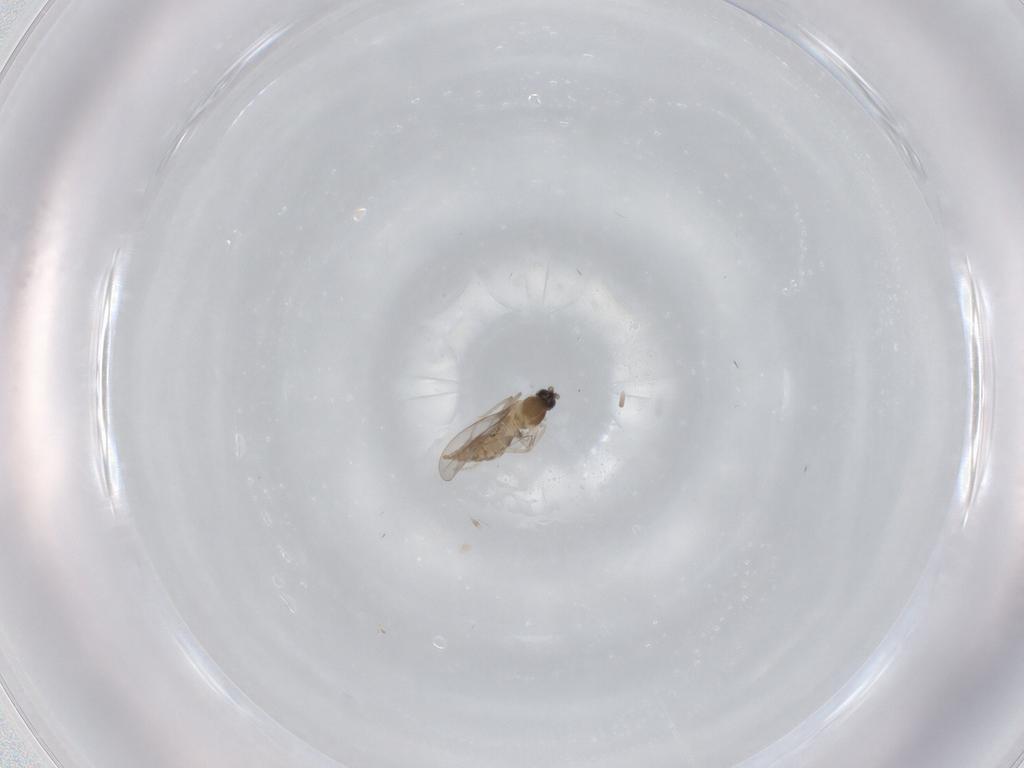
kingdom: Animalia
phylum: Arthropoda
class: Insecta
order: Diptera
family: Cecidomyiidae
